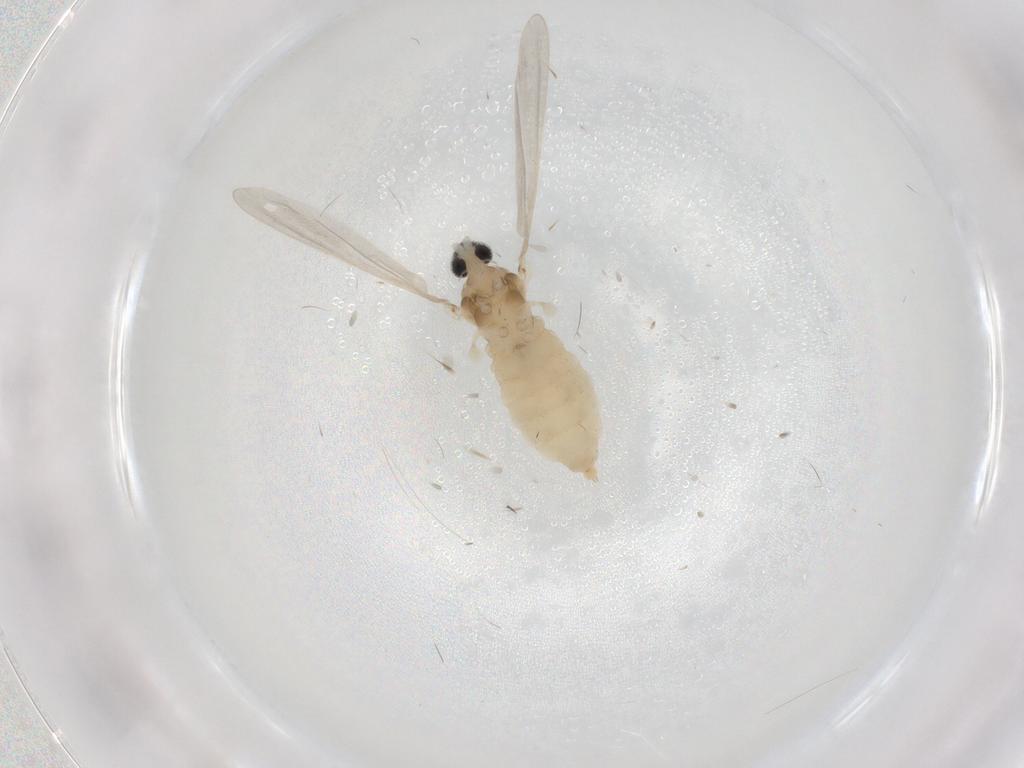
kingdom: Animalia
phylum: Arthropoda
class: Insecta
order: Diptera
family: Cecidomyiidae
